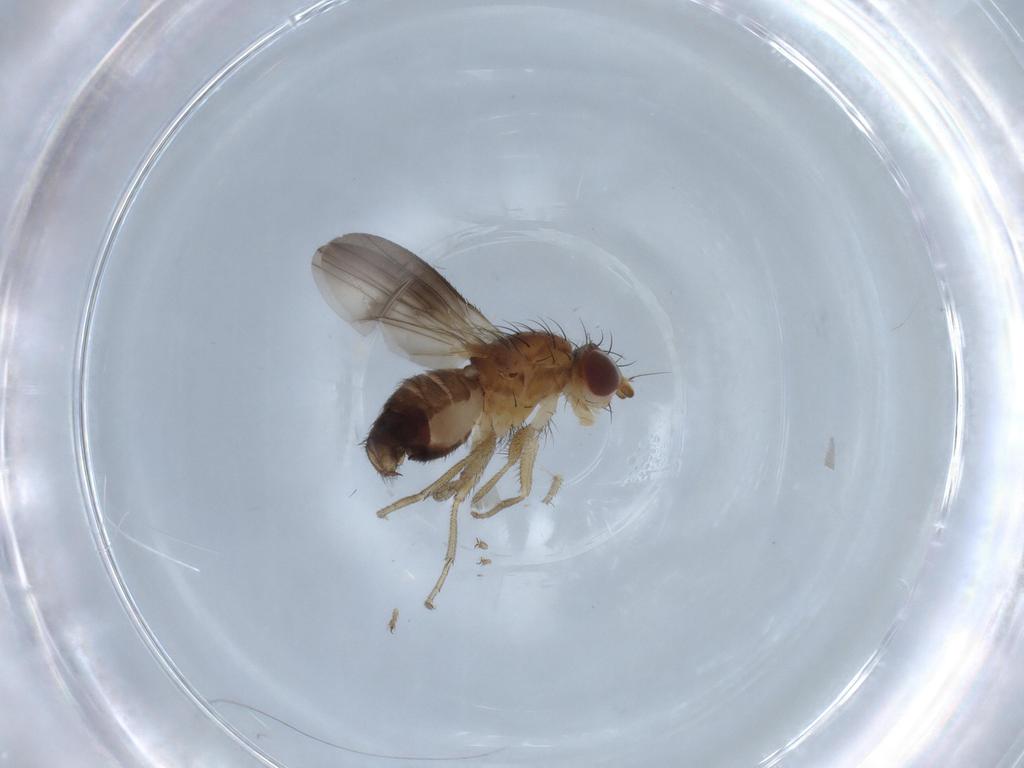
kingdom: Animalia
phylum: Arthropoda
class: Insecta
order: Diptera
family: Heleomyzidae
